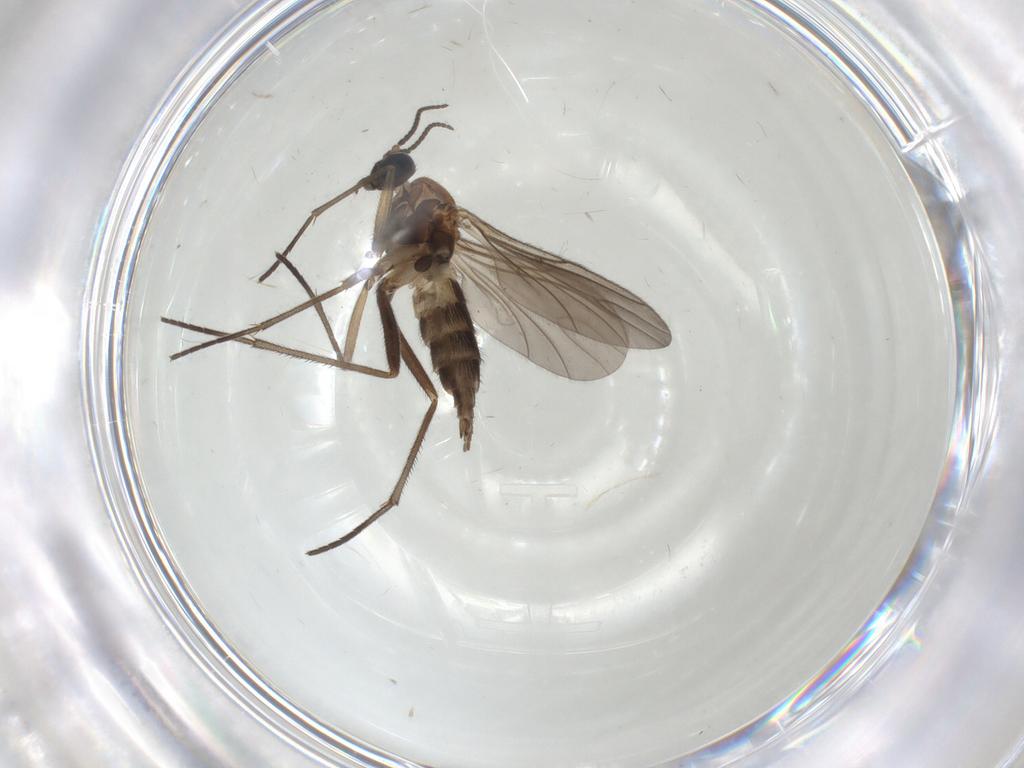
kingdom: Animalia
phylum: Arthropoda
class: Insecta
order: Diptera
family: Sciaridae
